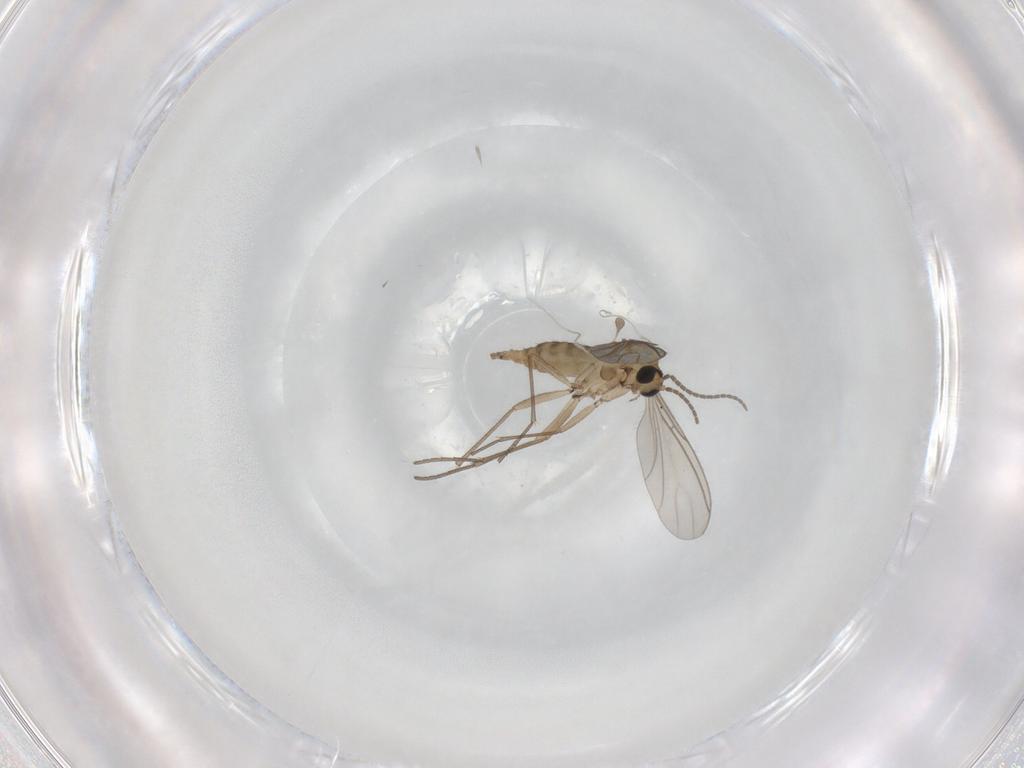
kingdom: Animalia
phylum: Arthropoda
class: Insecta
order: Diptera
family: Sciaridae
